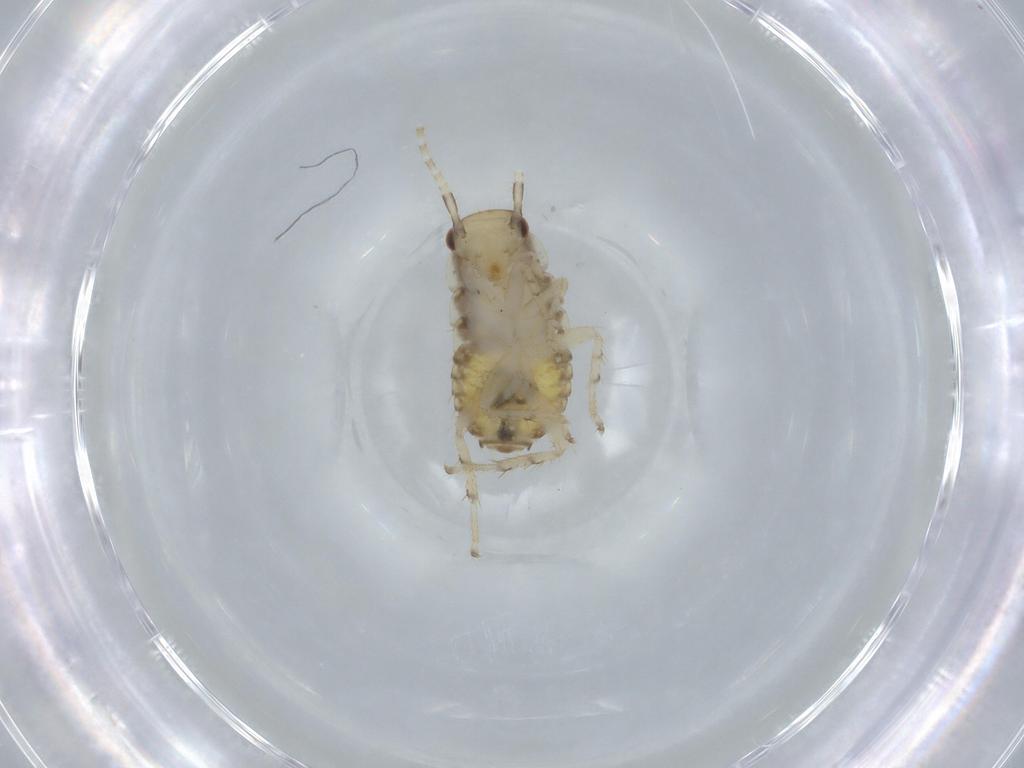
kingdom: Animalia
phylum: Arthropoda
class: Insecta
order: Blattodea
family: Ectobiidae
